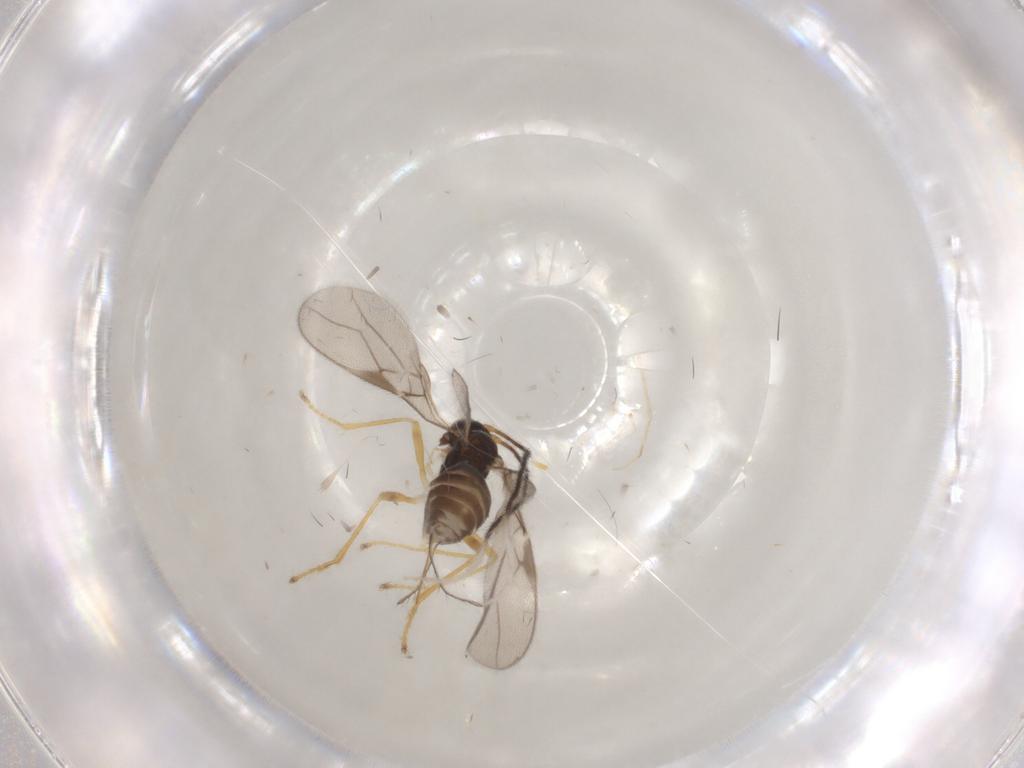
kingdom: Animalia
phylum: Arthropoda
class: Insecta
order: Hymenoptera
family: Braconidae
